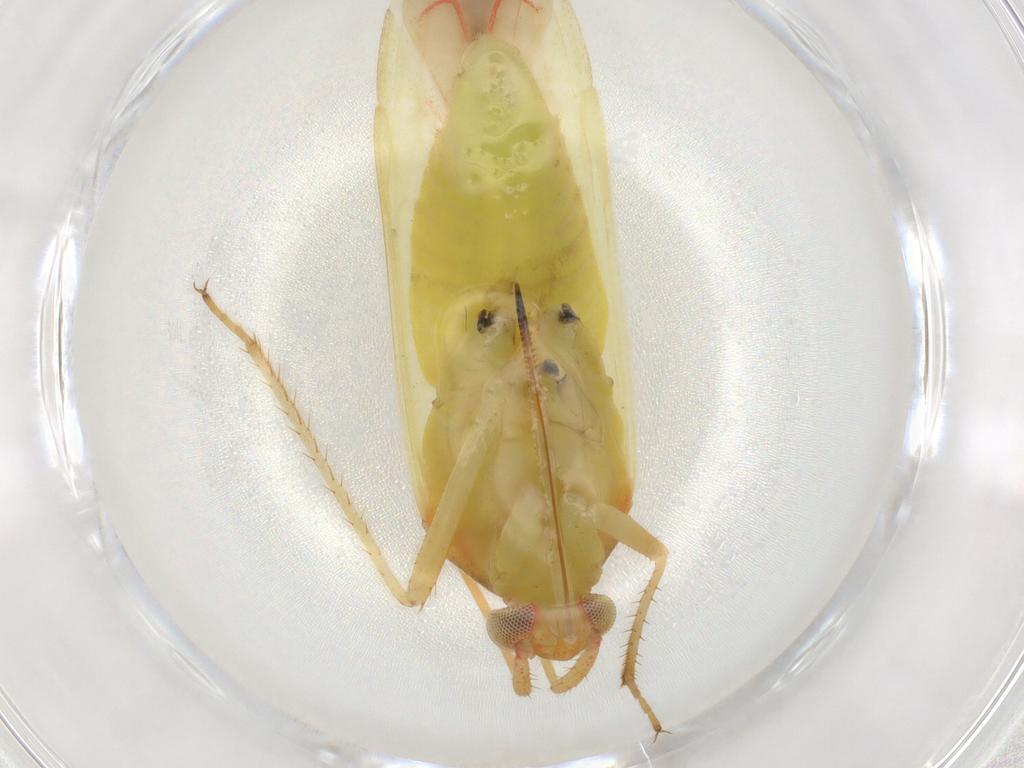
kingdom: Animalia
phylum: Arthropoda
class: Insecta
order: Hemiptera
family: Miridae
